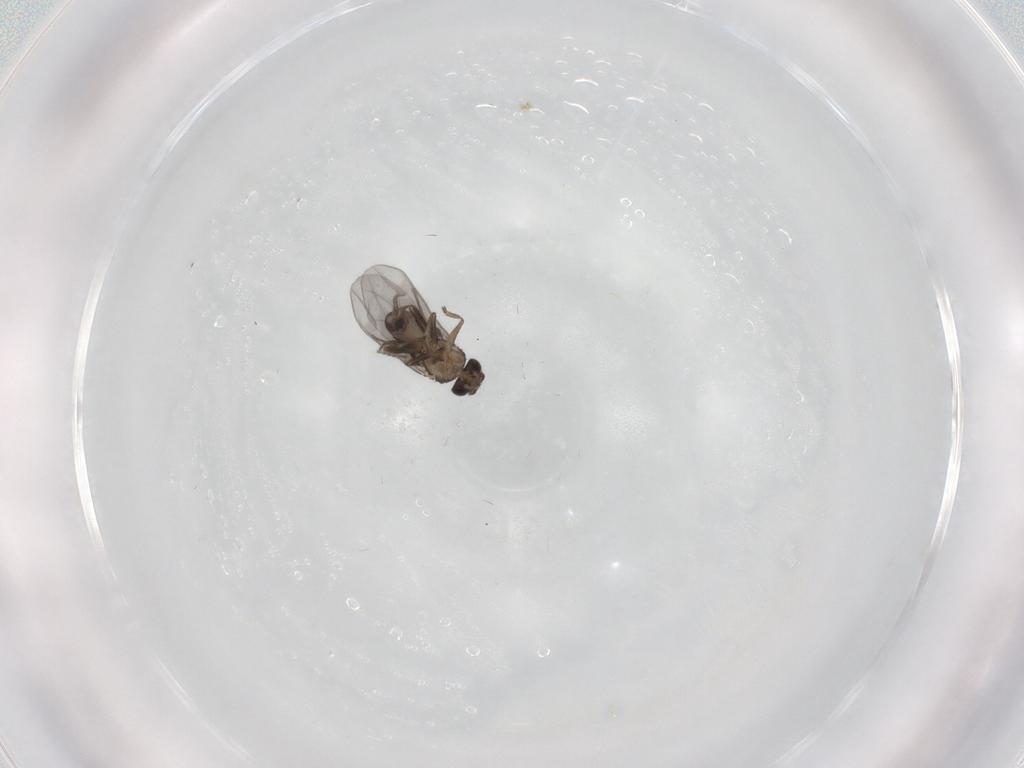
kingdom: Animalia
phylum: Arthropoda
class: Insecta
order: Diptera
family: Cecidomyiidae
